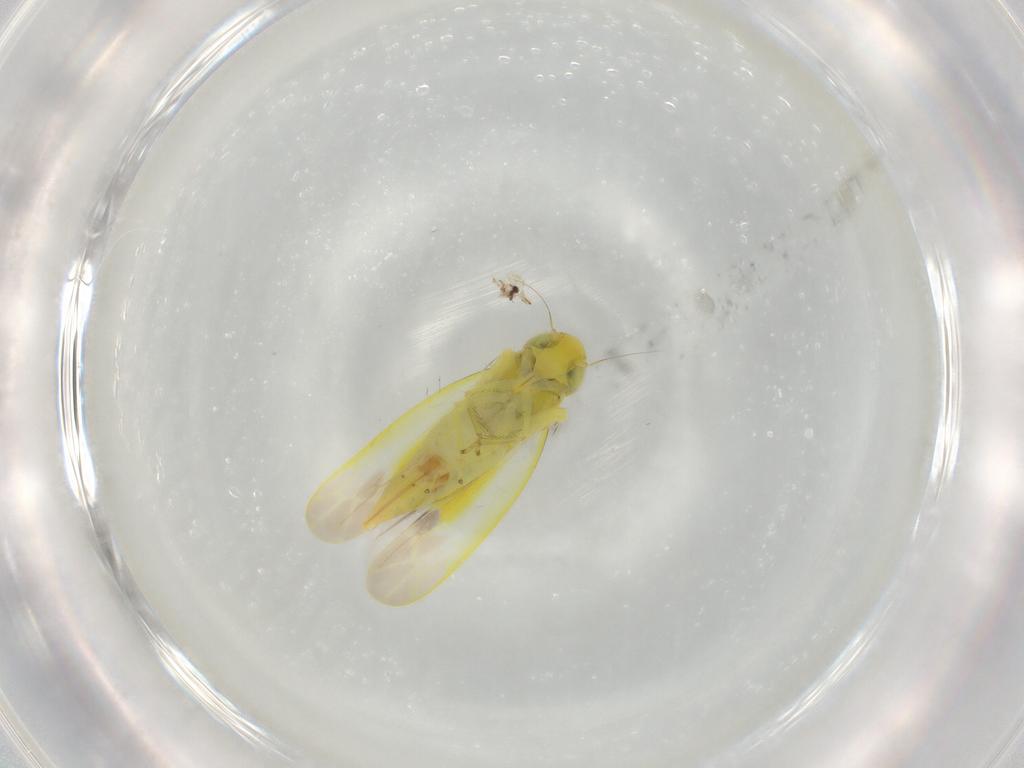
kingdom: Animalia
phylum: Arthropoda
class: Insecta
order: Hemiptera
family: Cicadellidae
